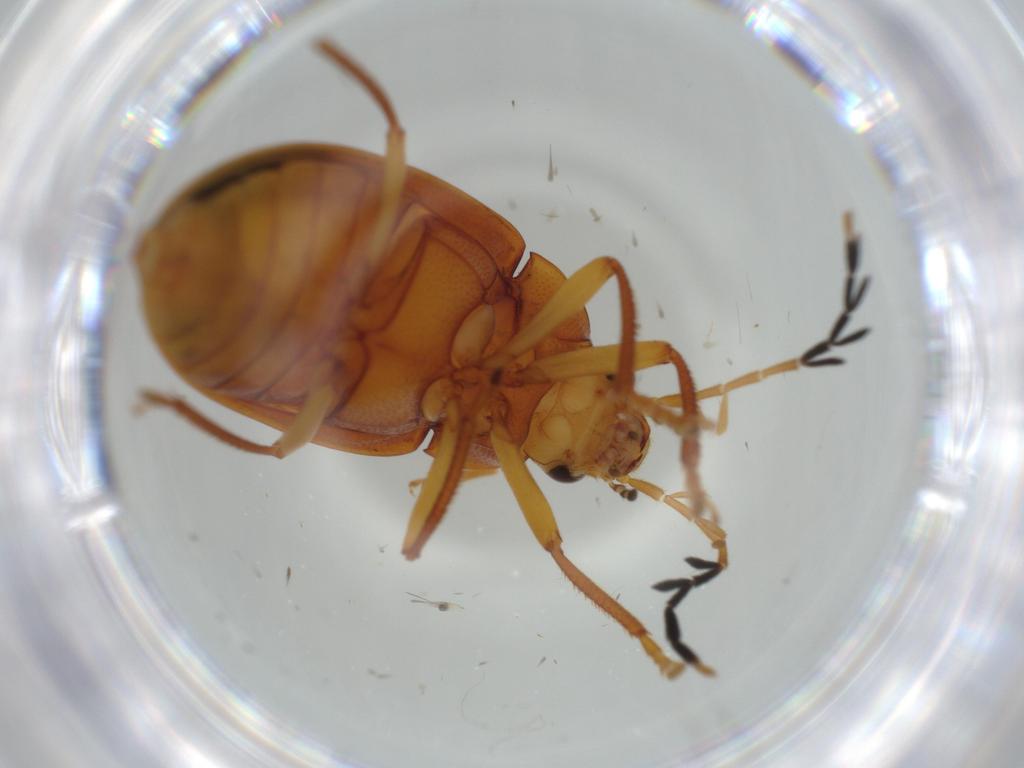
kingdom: Animalia
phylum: Arthropoda
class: Insecta
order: Coleoptera
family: Ptilodactylidae
